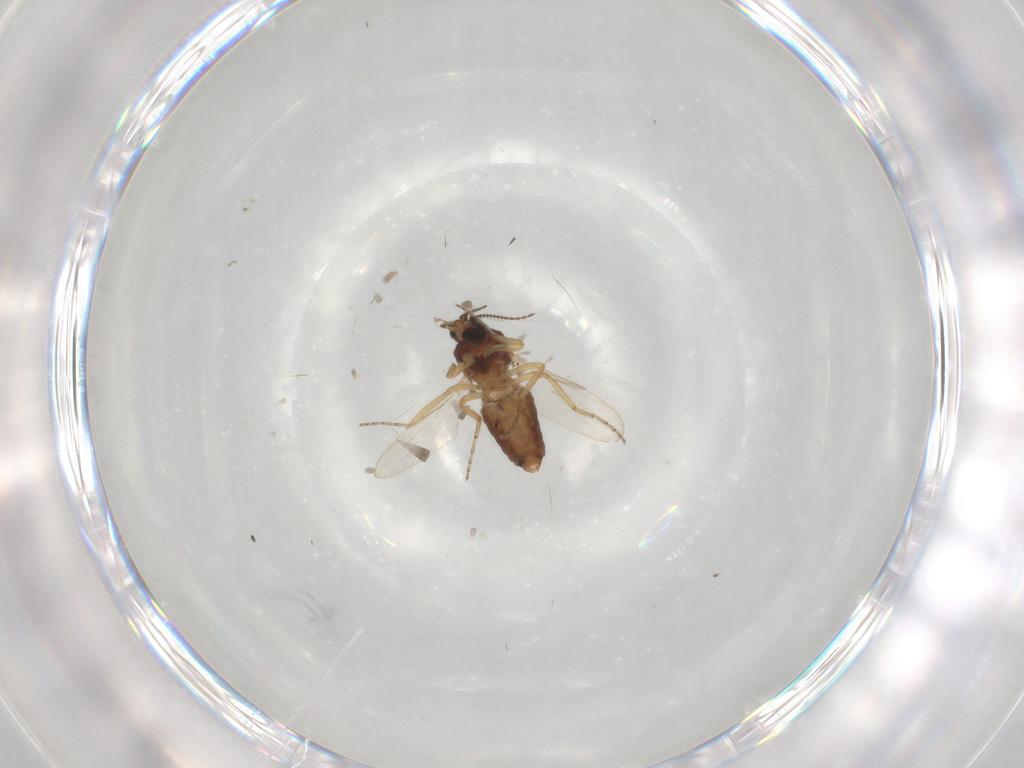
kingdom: Animalia
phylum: Arthropoda
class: Insecta
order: Diptera
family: Ceratopogonidae
